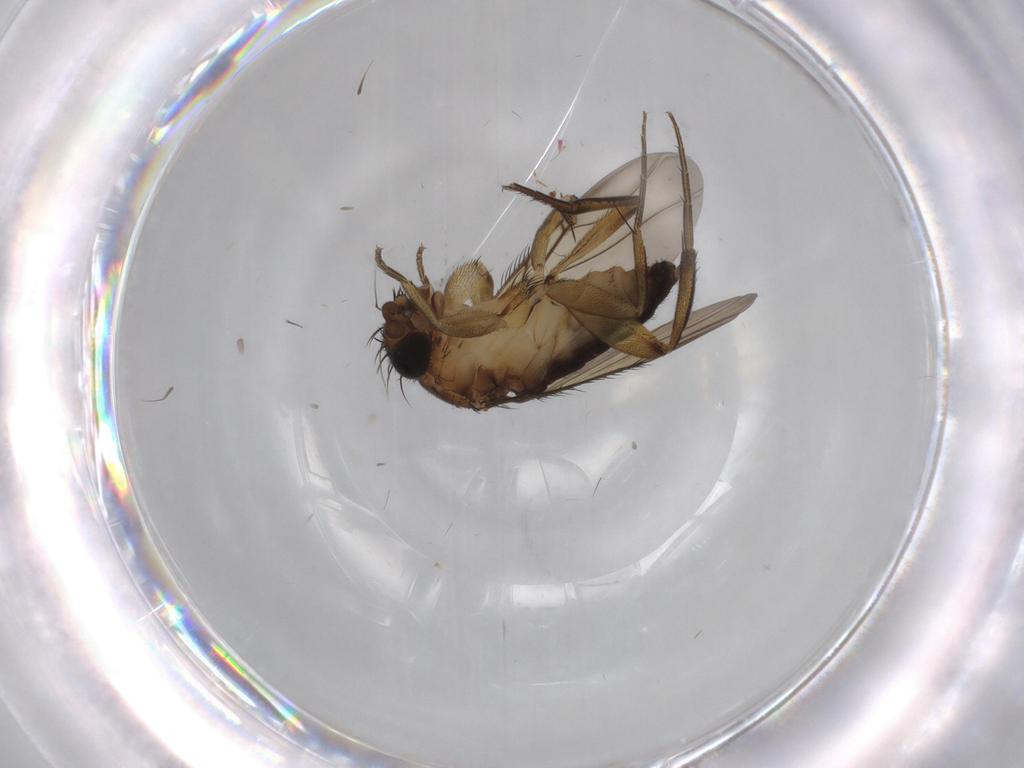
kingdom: Animalia
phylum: Arthropoda
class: Insecta
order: Diptera
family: Phoridae
